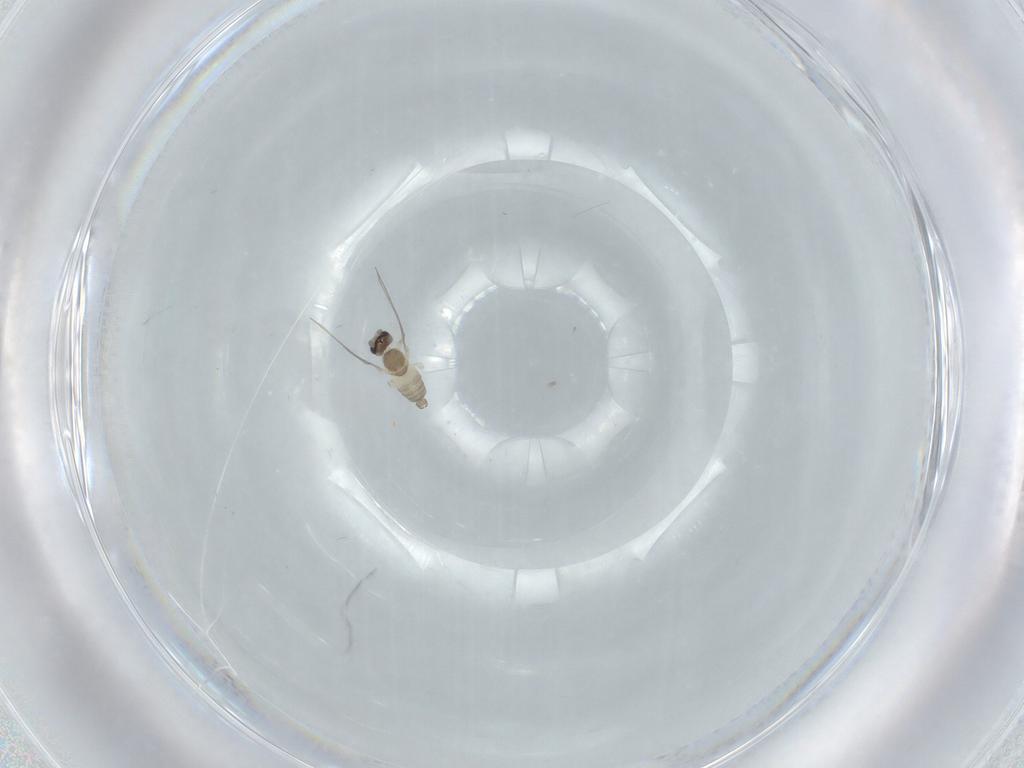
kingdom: Animalia
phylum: Arthropoda
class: Insecta
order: Diptera
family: Cecidomyiidae
